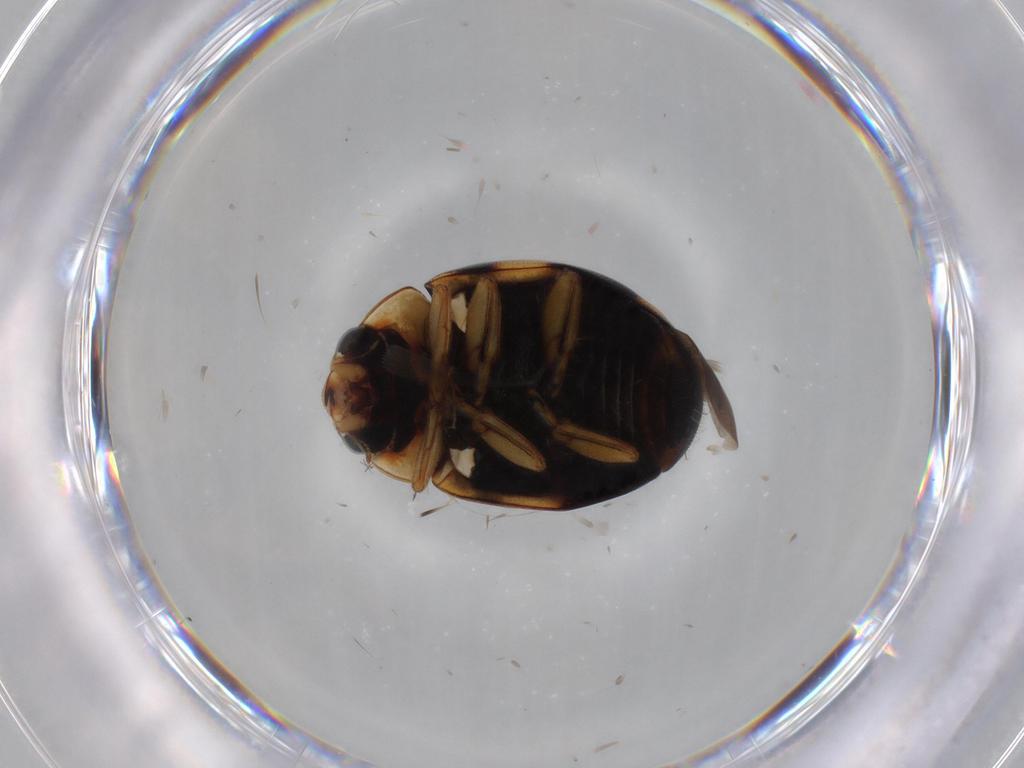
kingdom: Animalia
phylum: Arthropoda
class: Insecta
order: Coleoptera
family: Coccinellidae
